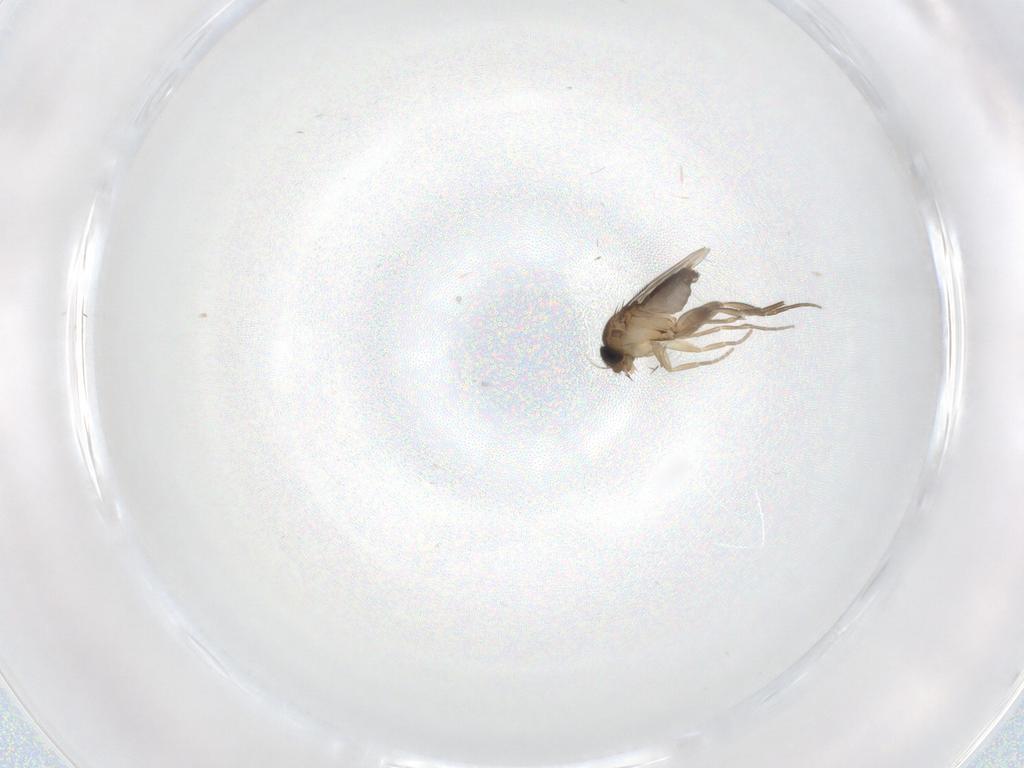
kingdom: Animalia
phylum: Arthropoda
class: Insecta
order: Diptera
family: Phoridae
